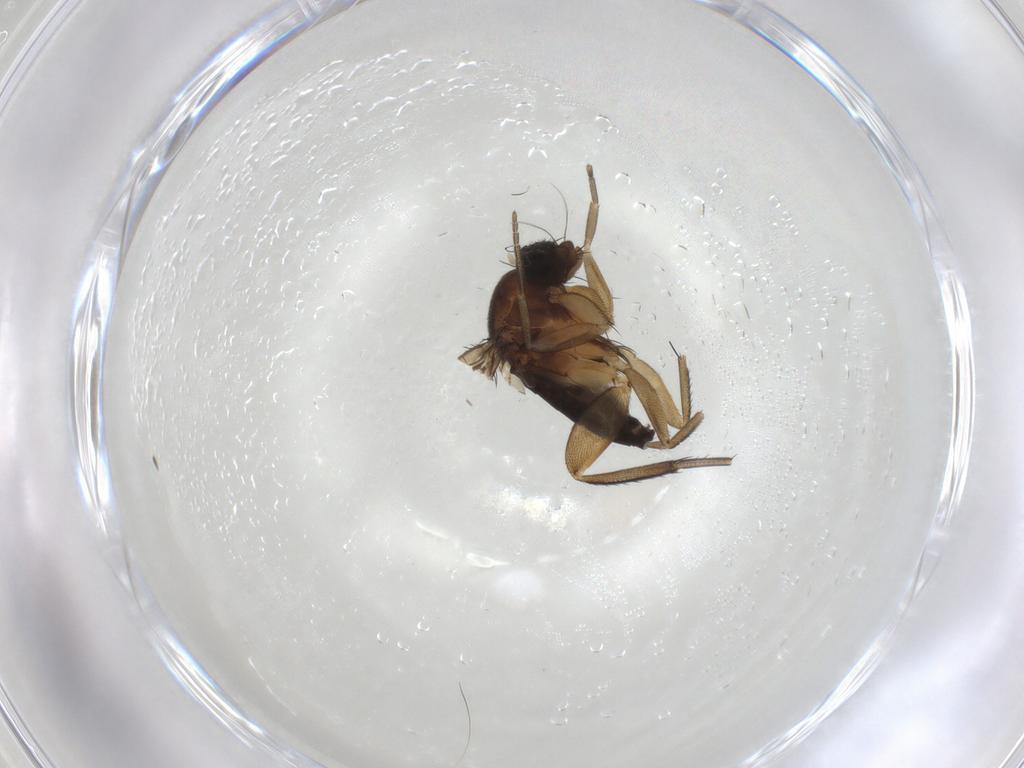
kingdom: Animalia
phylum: Arthropoda
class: Insecta
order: Diptera
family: Phoridae
